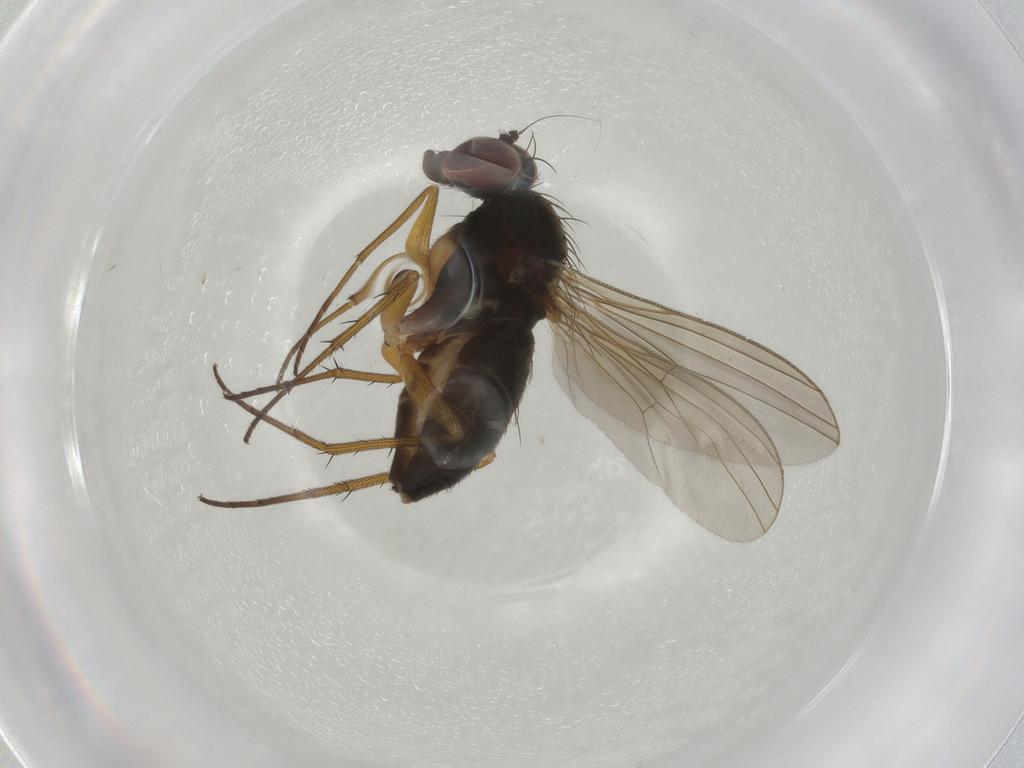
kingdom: Animalia
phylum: Arthropoda
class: Insecta
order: Diptera
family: Dolichopodidae
